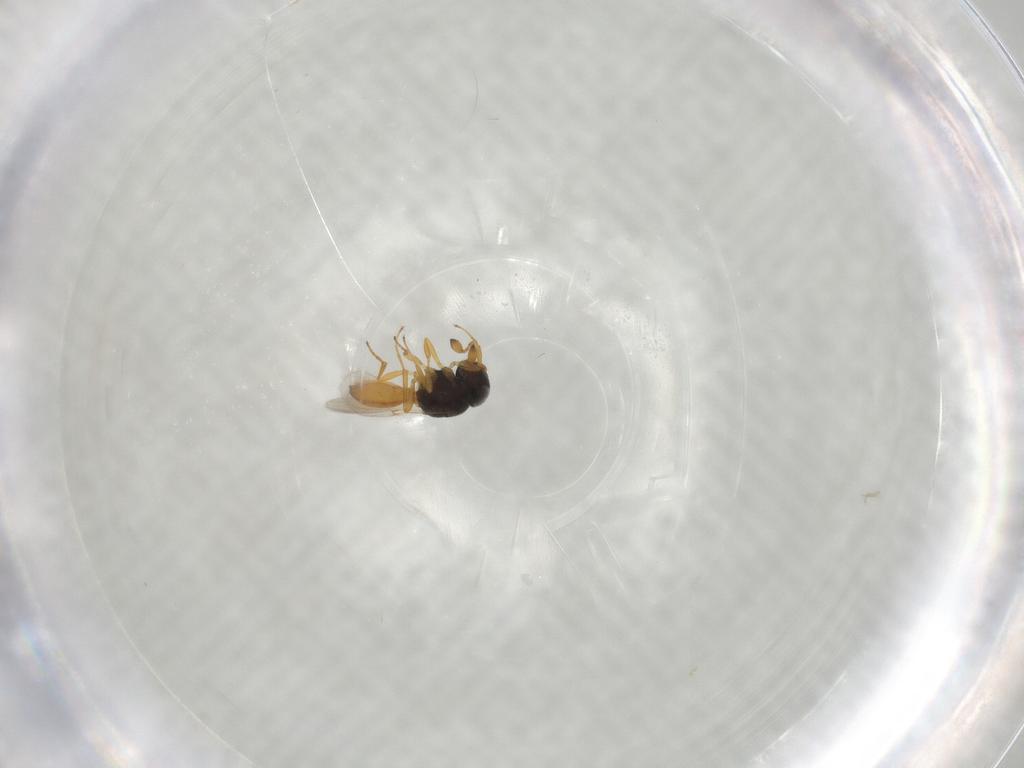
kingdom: Animalia
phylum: Arthropoda
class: Insecta
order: Hymenoptera
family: Scelionidae
